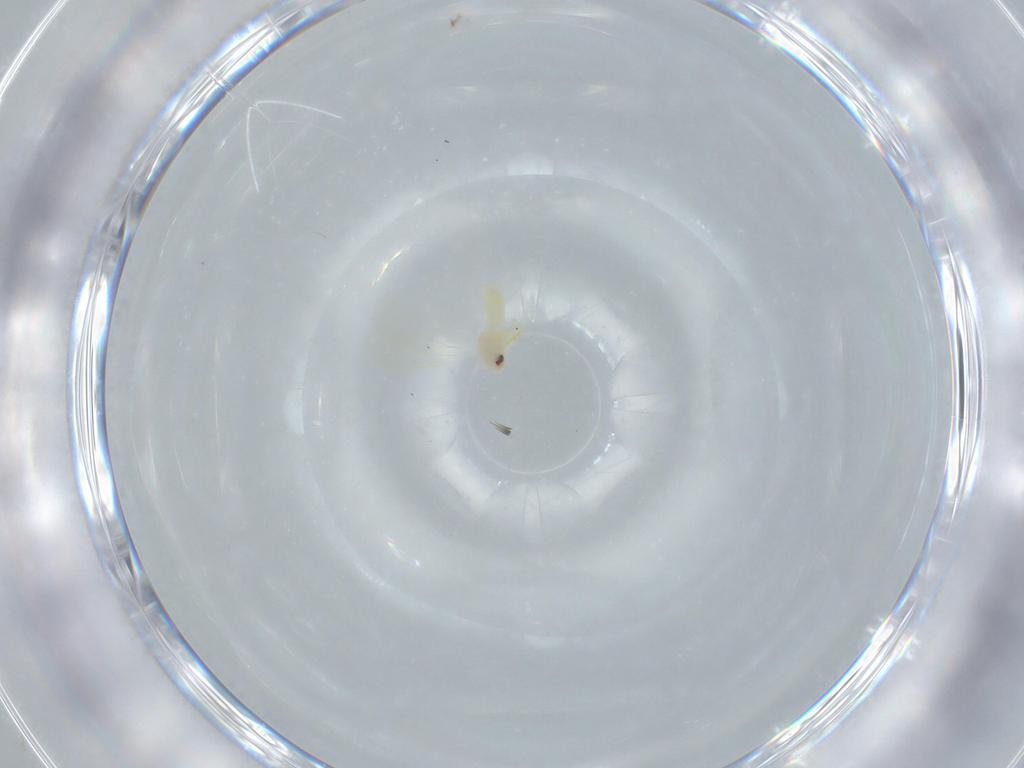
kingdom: Animalia
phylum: Arthropoda
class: Insecta
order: Hemiptera
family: Aleyrodidae
